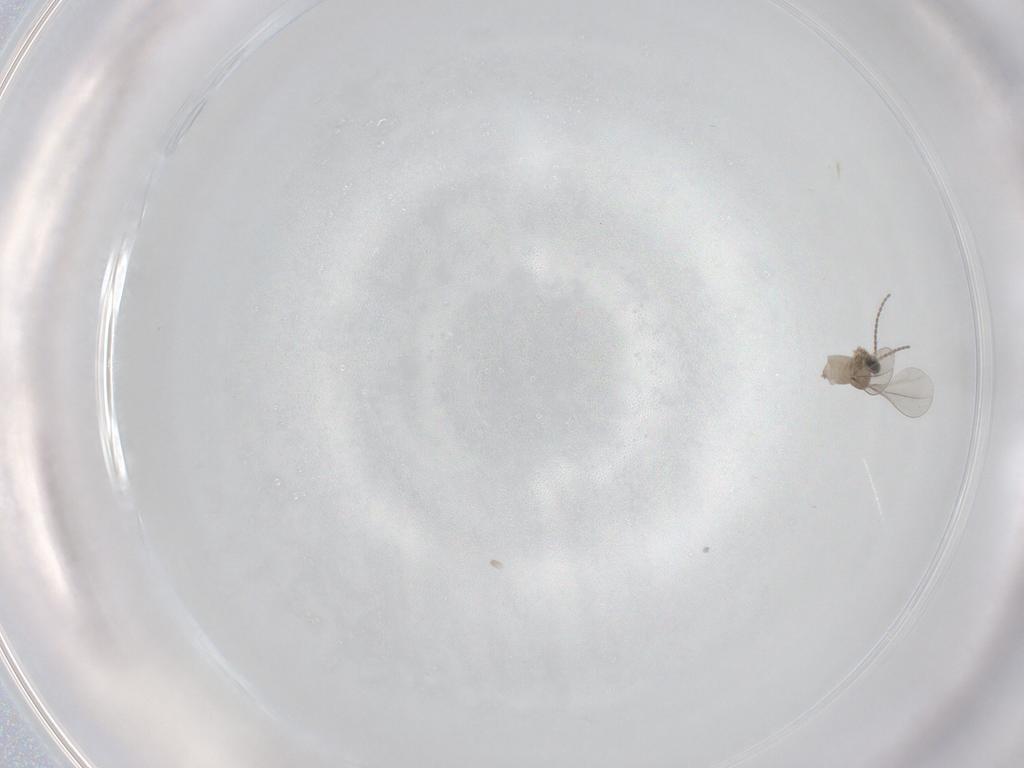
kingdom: Animalia
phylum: Arthropoda
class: Insecta
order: Diptera
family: Cecidomyiidae
